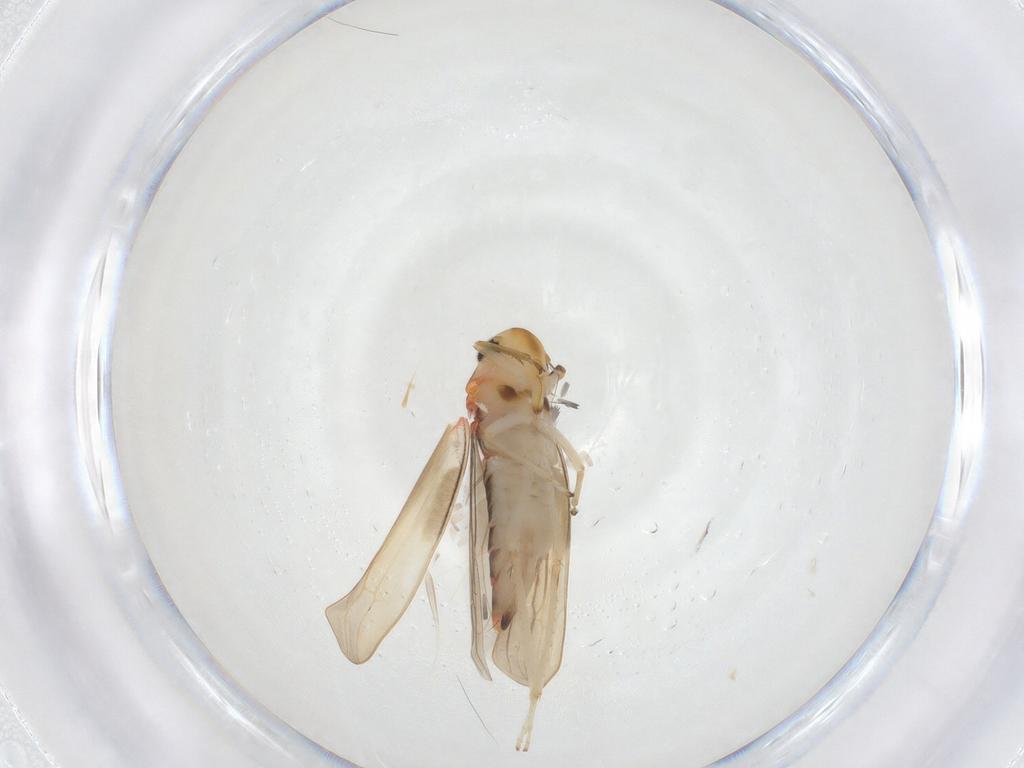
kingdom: Animalia
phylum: Arthropoda
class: Insecta
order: Hemiptera
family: Cicadellidae
